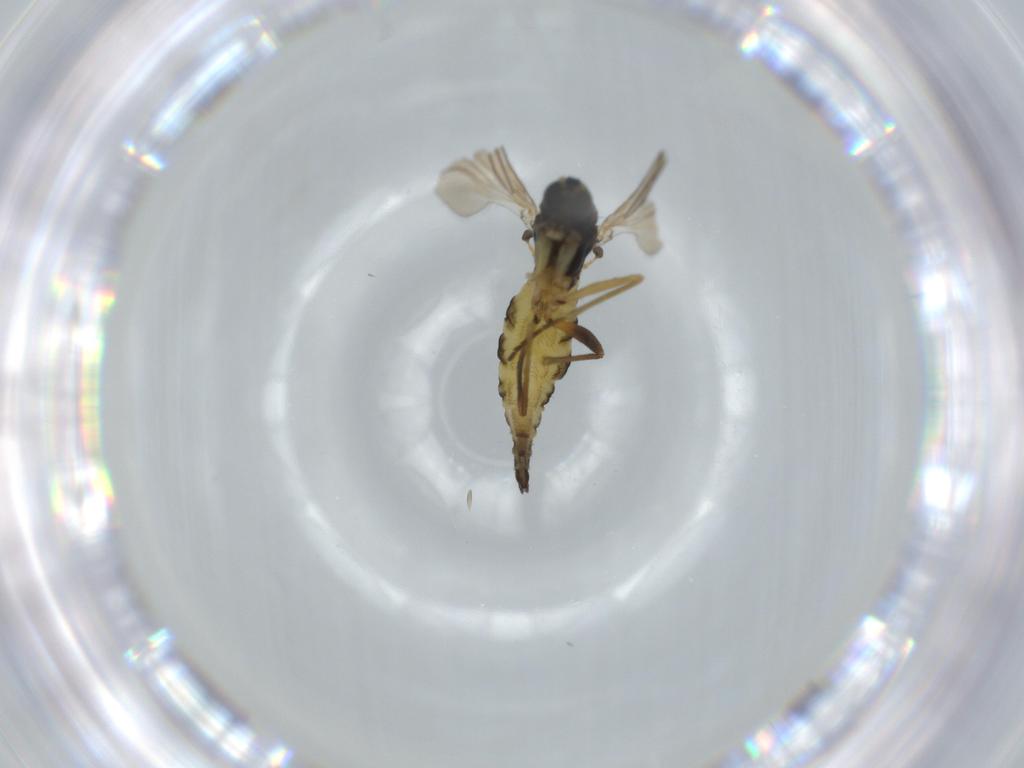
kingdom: Animalia
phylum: Arthropoda
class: Insecta
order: Diptera
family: Sciaridae
